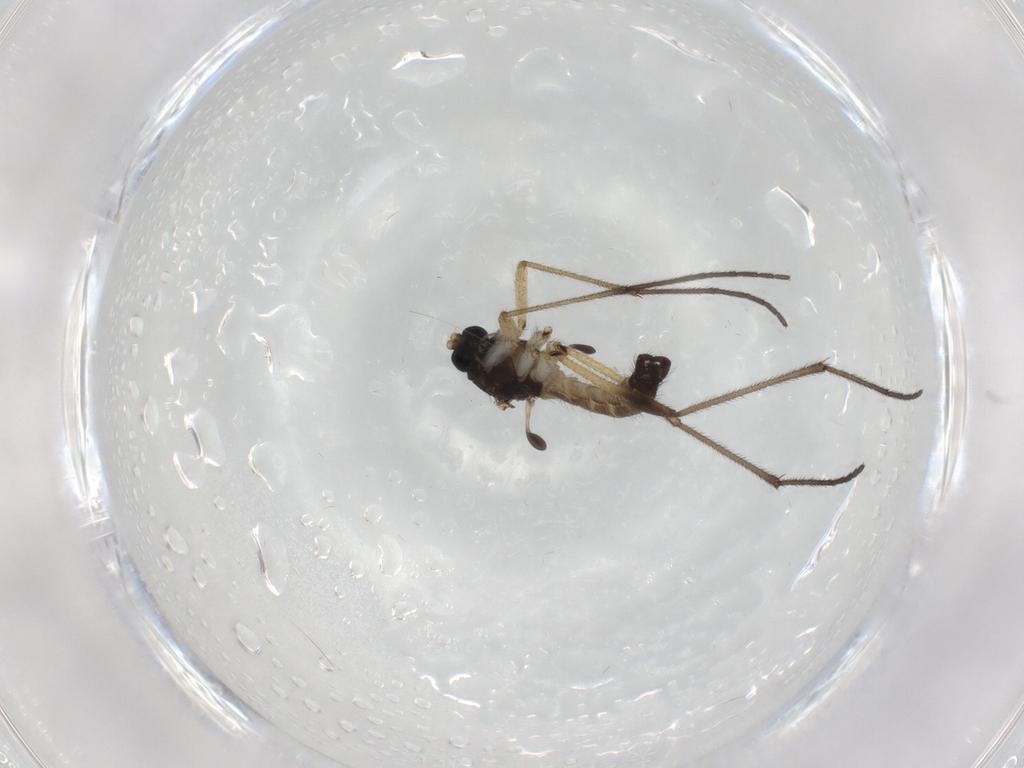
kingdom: Animalia
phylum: Arthropoda
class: Insecta
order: Diptera
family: Sciaridae
